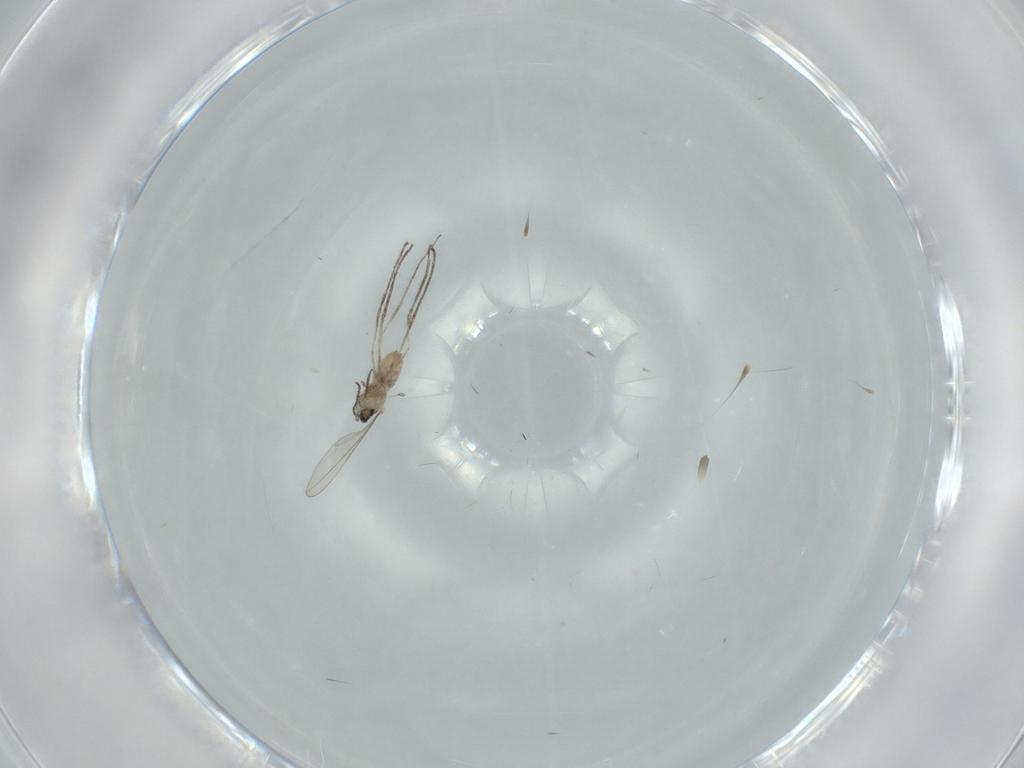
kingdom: Animalia
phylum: Arthropoda
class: Insecta
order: Diptera
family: Cecidomyiidae
